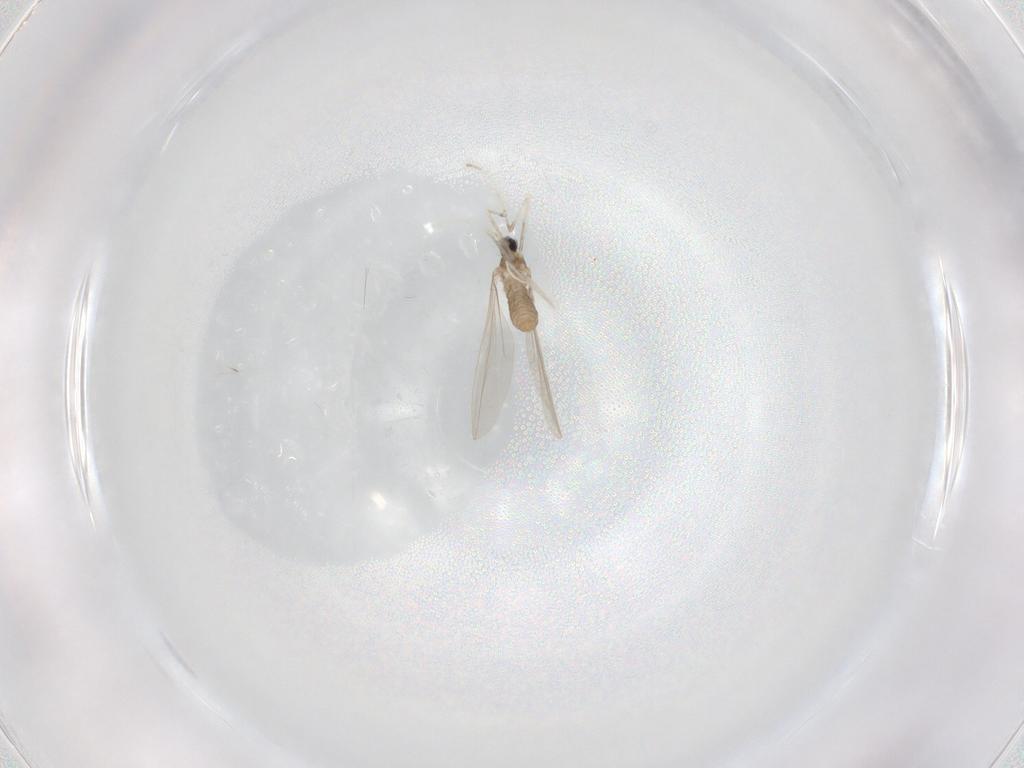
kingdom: Animalia
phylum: Arthropoda
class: Insecta
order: Diptera
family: Cecidomyiidae
